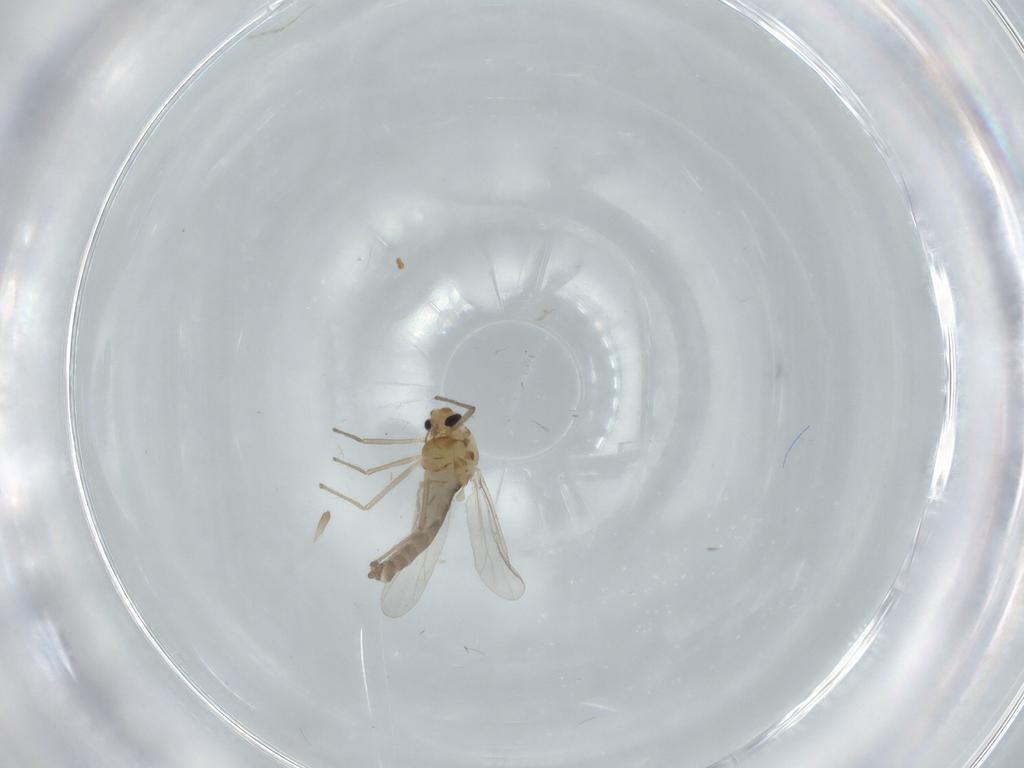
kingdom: Animalia
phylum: Arthropoda
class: Insecta
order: Diptera
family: Chironomidae
